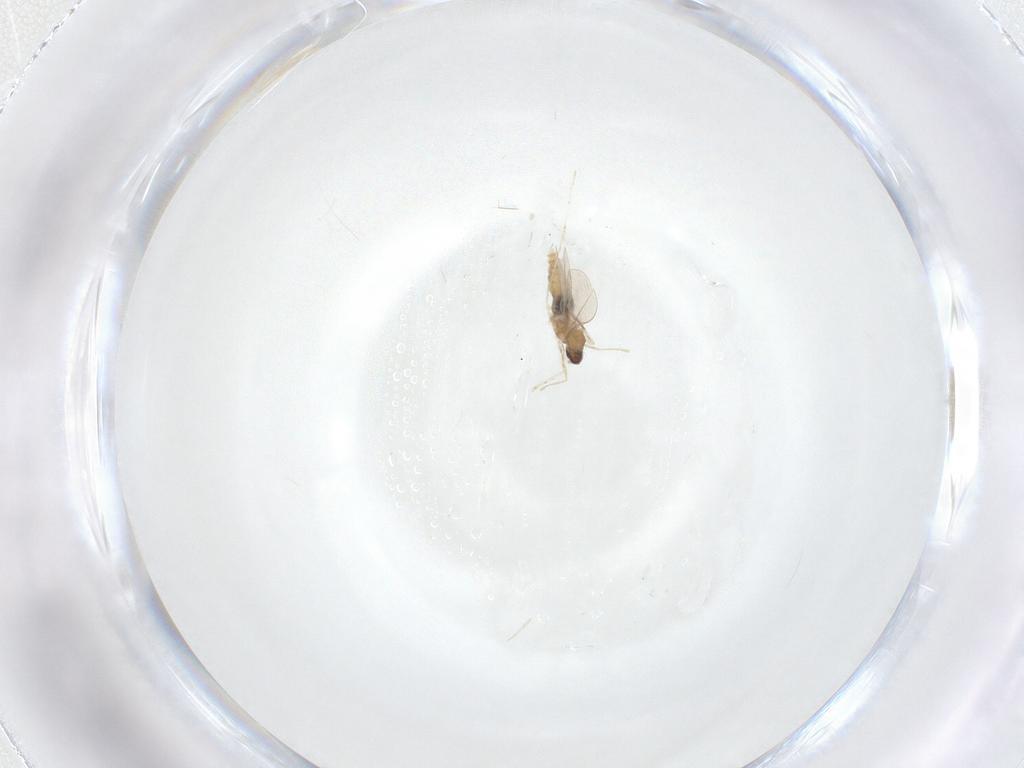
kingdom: Animalia
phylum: Arthropoda
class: Insecta
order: Diptera
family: Cecidomyiidae
